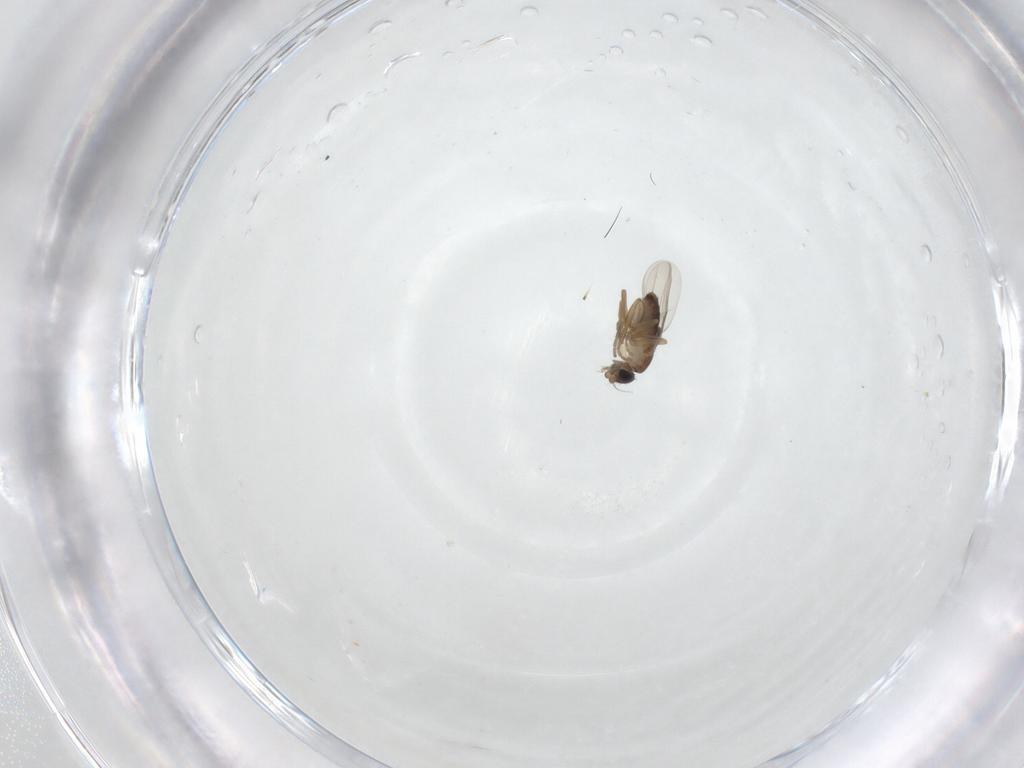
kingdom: Animalia
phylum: Arthropoda
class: Insecta
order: Diptera
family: Phoridae
